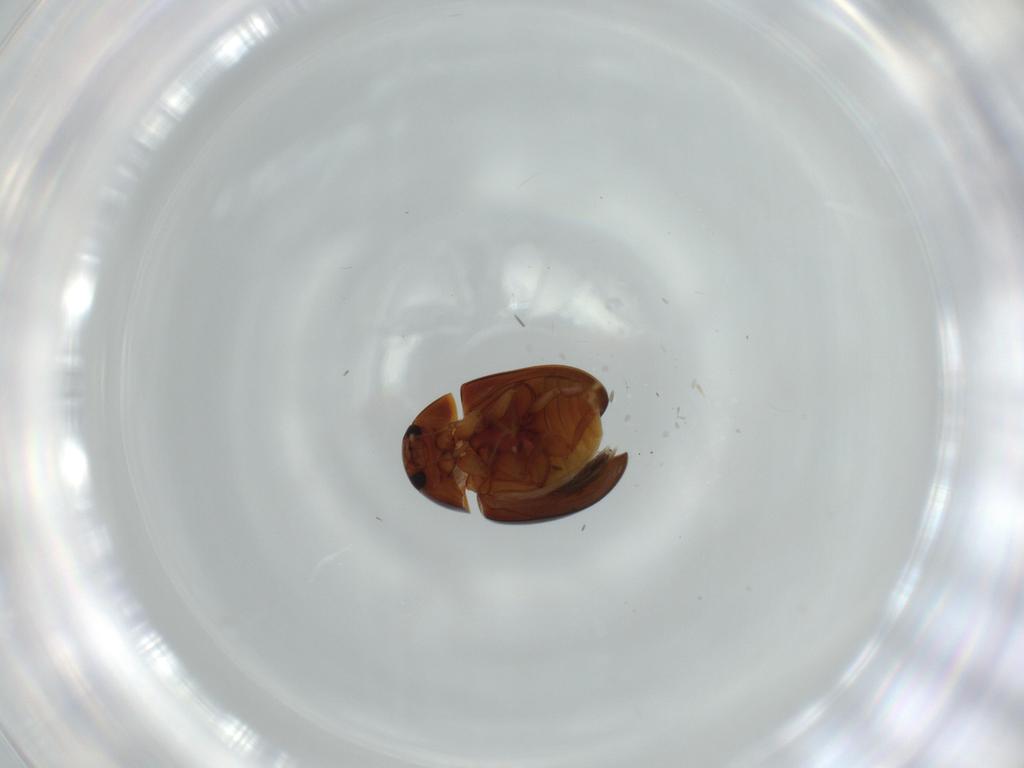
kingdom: Animalia
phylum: Arthropoda
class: Insecta
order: Coleoptera
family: Phalacridae
